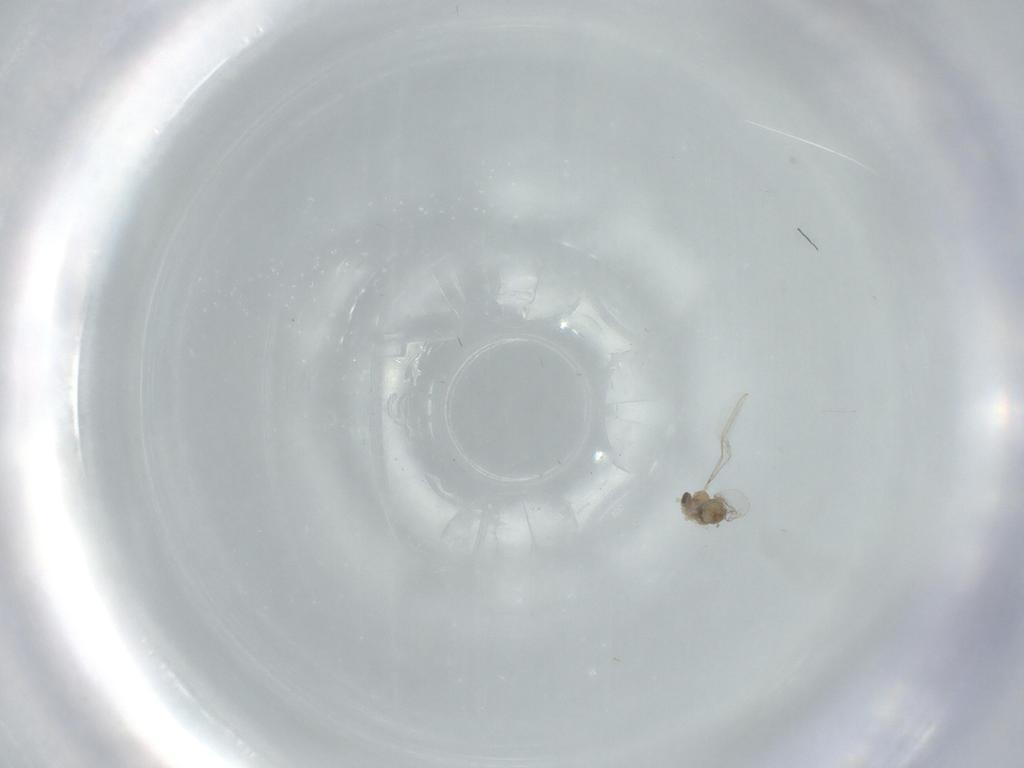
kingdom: Animalia
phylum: Arthropoda
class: Insecta
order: Diptera
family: Cecidomyiidae
